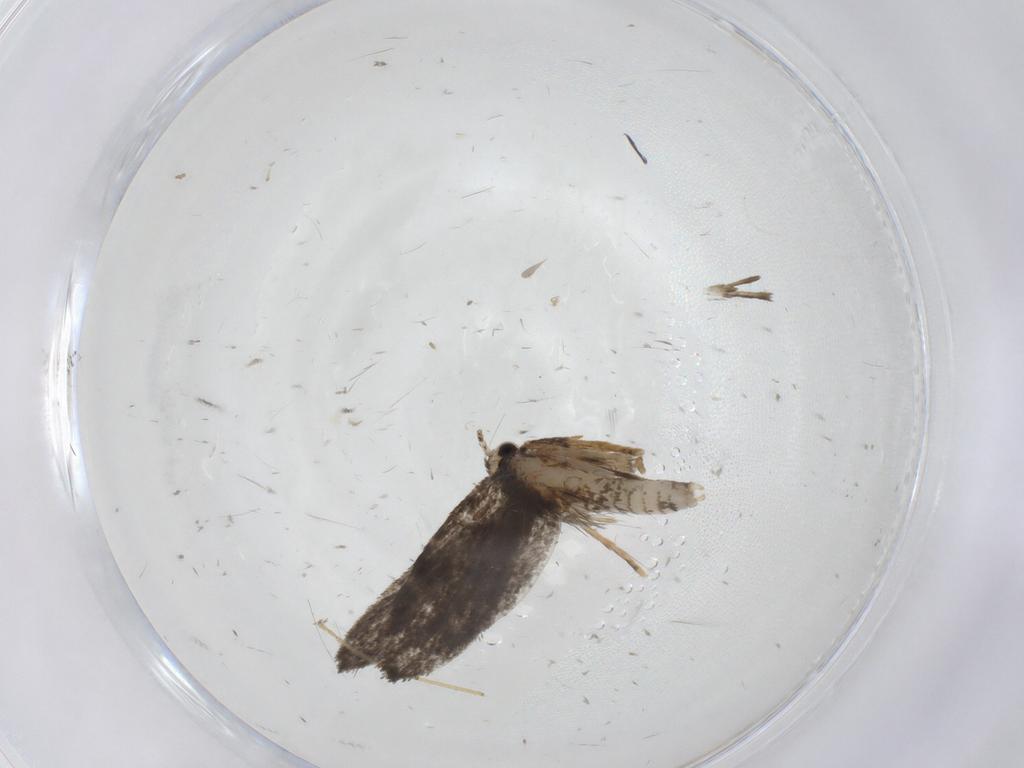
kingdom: Animalia
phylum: Arthropoda
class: Insecta
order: Lepidoptera
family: Psychidae
